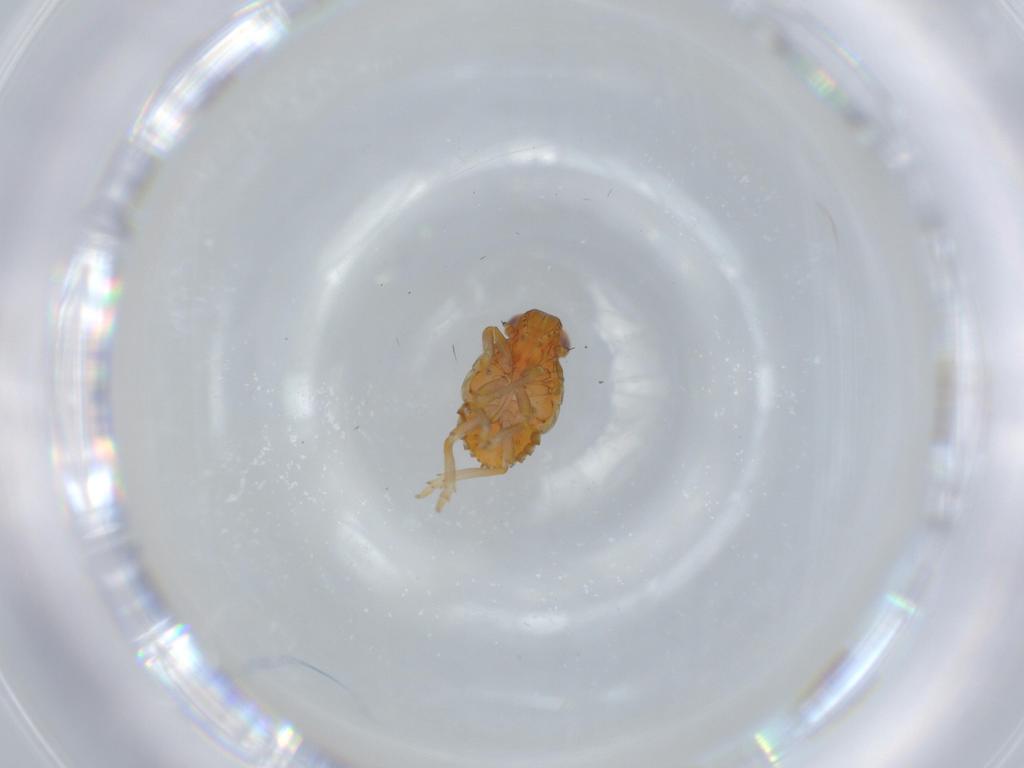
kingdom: Animalia
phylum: Arthropoda
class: Insecta
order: Hemiptera
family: Issidae
